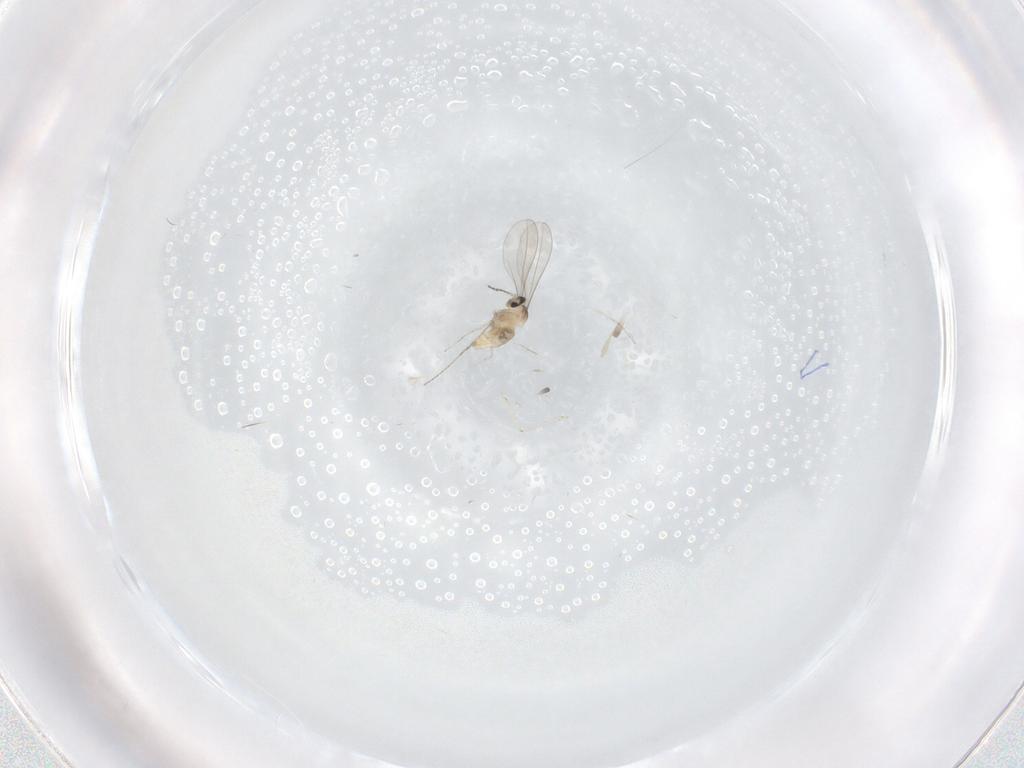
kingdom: Animalia
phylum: Arthropoda
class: Insecta
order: Diptera
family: Cecidomyiidae
